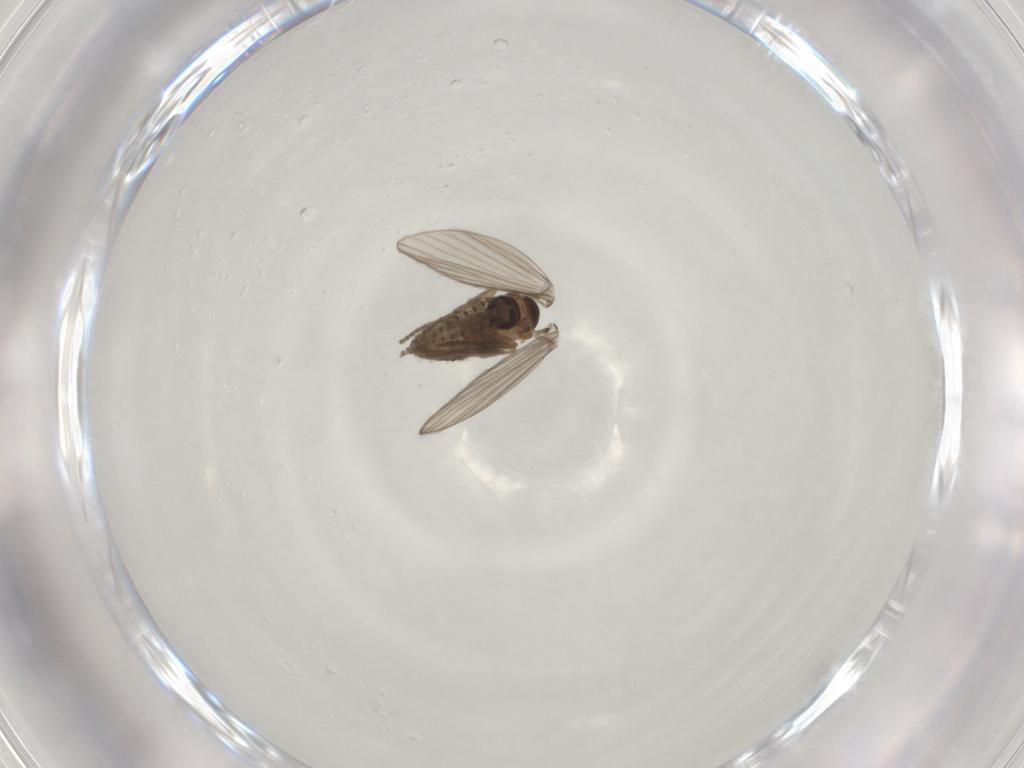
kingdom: Animalia
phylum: Arthropoda
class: Insecta
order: Diptera
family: Psychodidae
